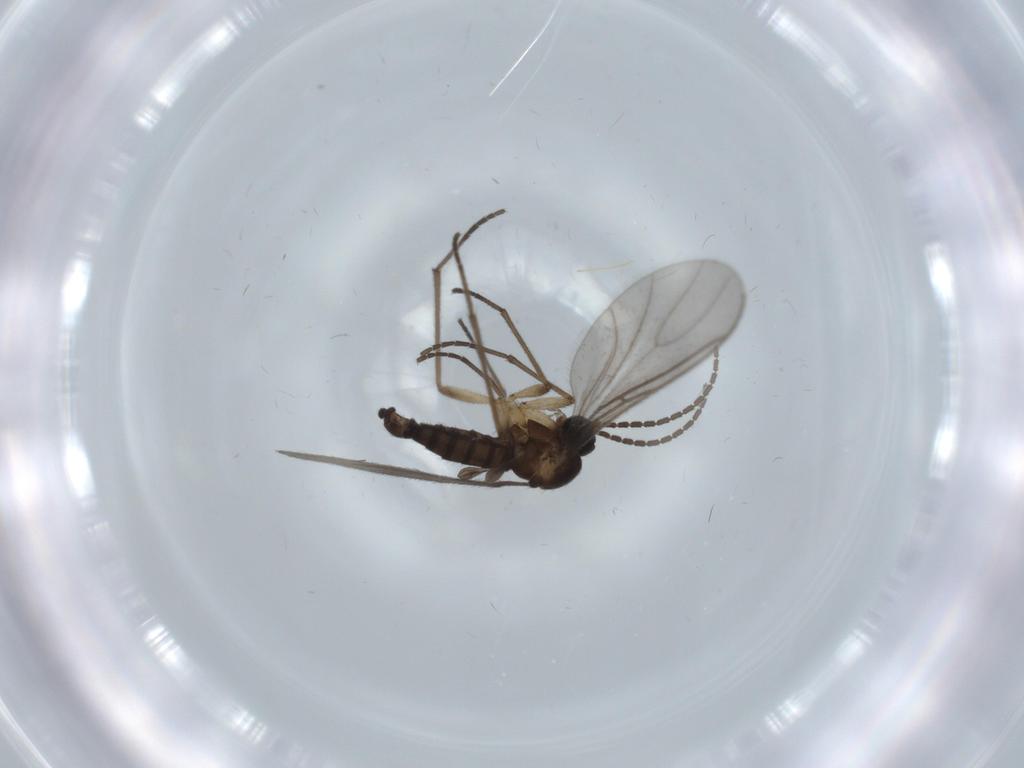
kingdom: Animalia
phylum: Arthropoda
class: Insecta
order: Diptera
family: Sciaridae
